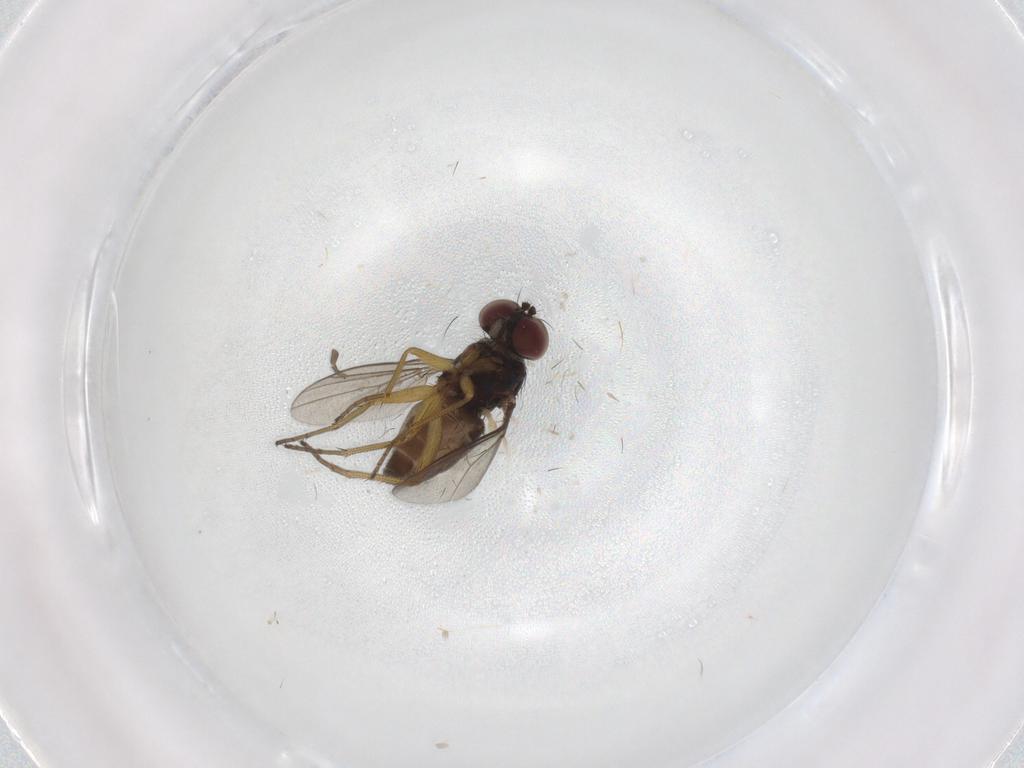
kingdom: Animalia
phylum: Arthropoda
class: Insecta
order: Diptera
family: Dolichopodidae
